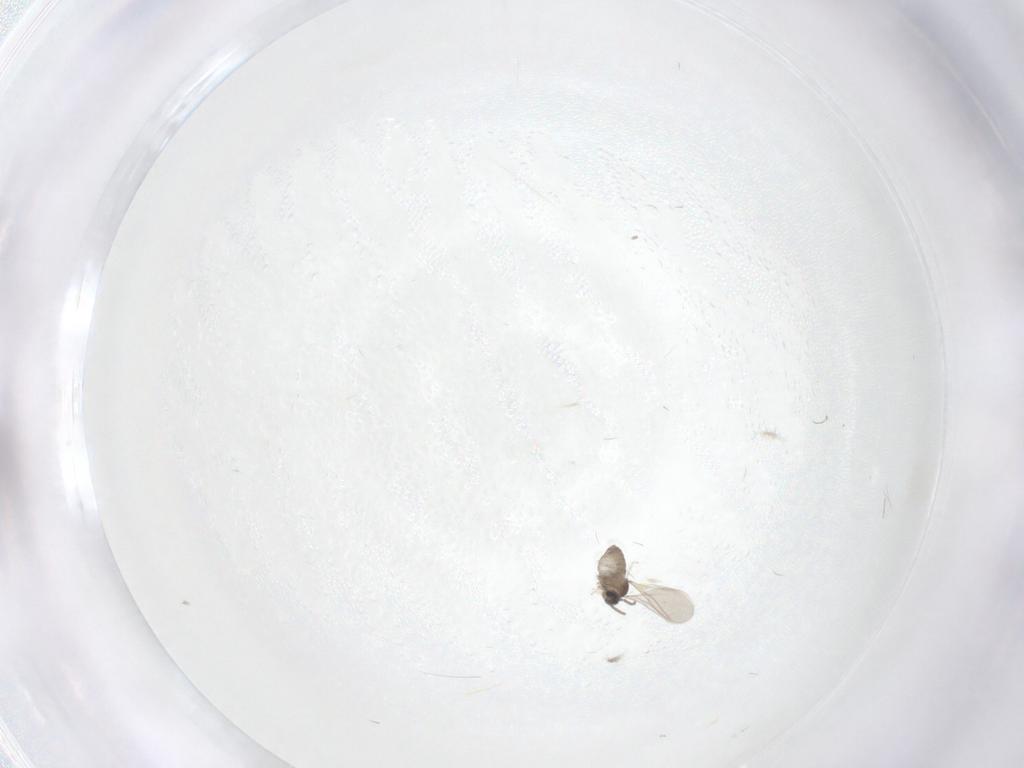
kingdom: Animalia
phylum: Arthropoda
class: Insecta
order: Diptera
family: Cecidomyiidae
